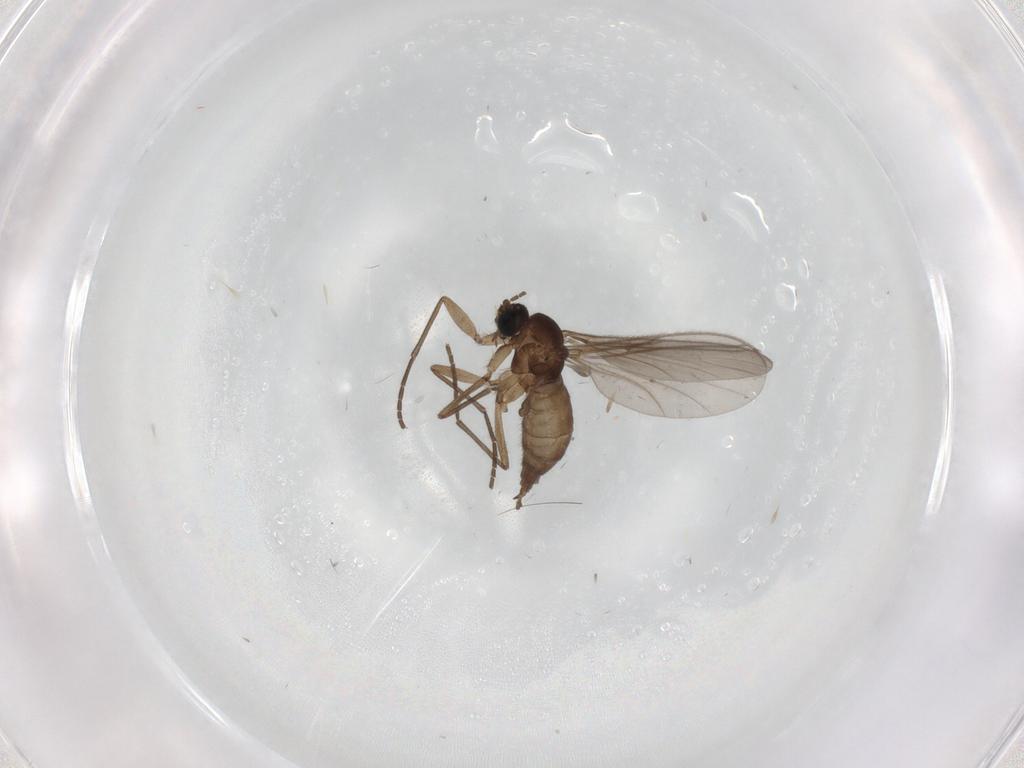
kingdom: Animalia
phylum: Arthropoda
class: Insecta
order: Diptera
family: Sciaridae
